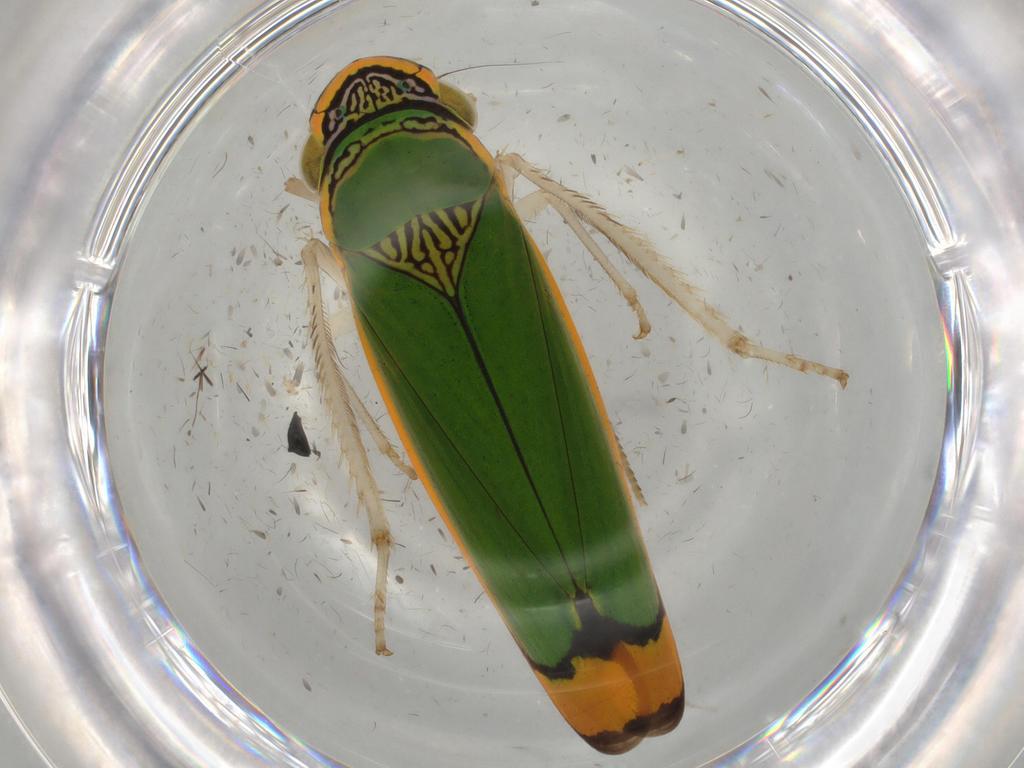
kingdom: Animalia
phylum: Arthropoda
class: Insecta
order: Hemiptera
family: Cicadellidae
